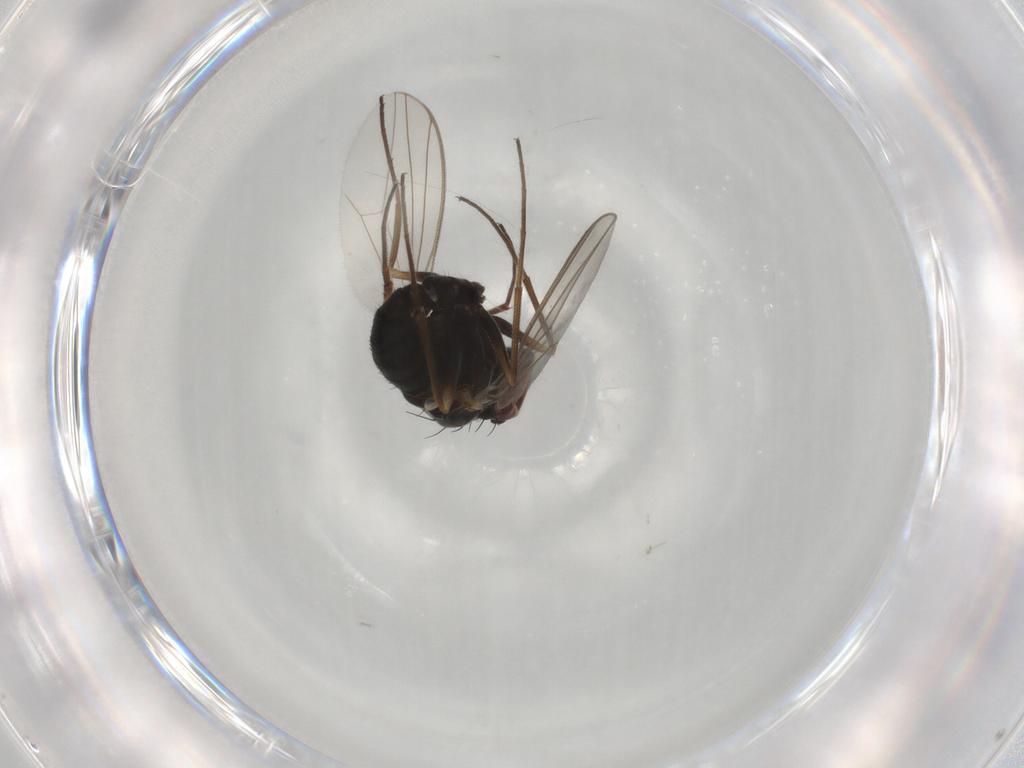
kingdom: Animalia
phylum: Arthropoda
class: Insecta
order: Diptera
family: Dolichopodidae
